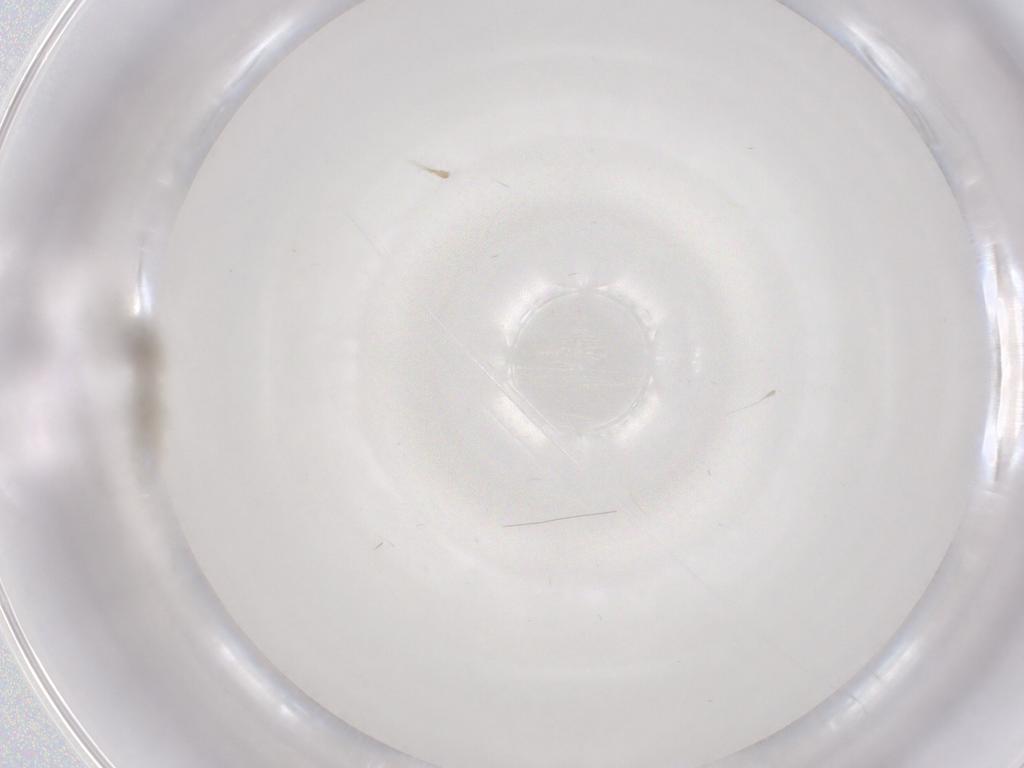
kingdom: Animalia
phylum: Arthropoda
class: Insecta
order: Diptera
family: Cecidomyiidae
